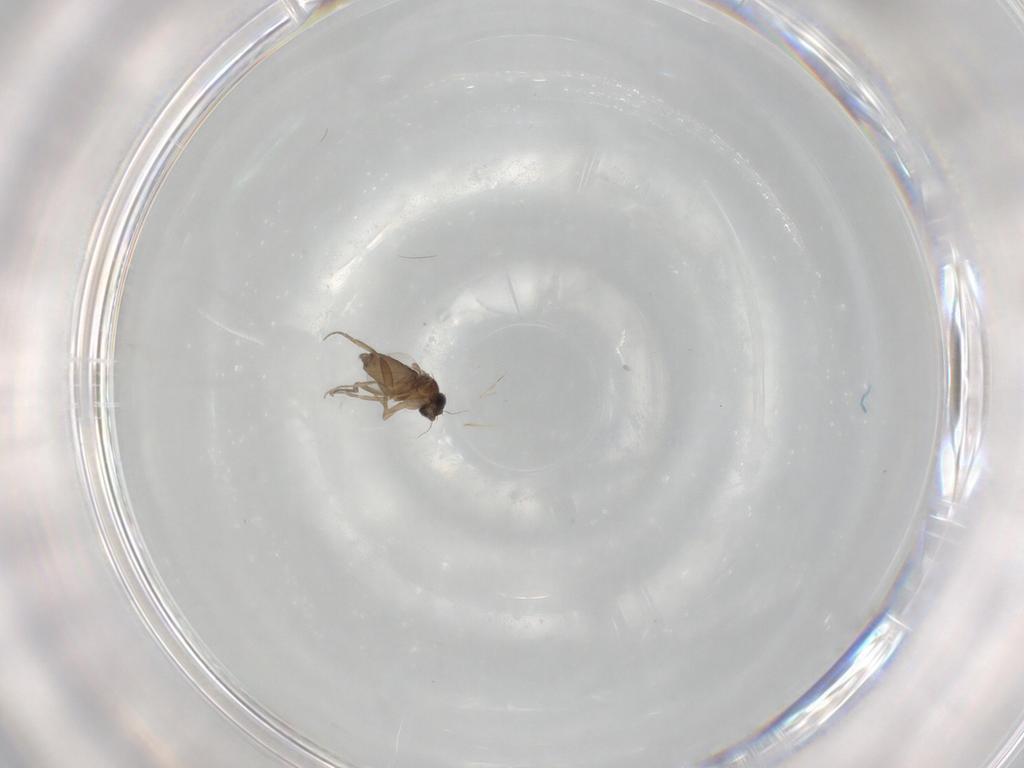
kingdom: Animalia
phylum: Arthropoda
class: Insecta
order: Diptera
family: Phoridae
